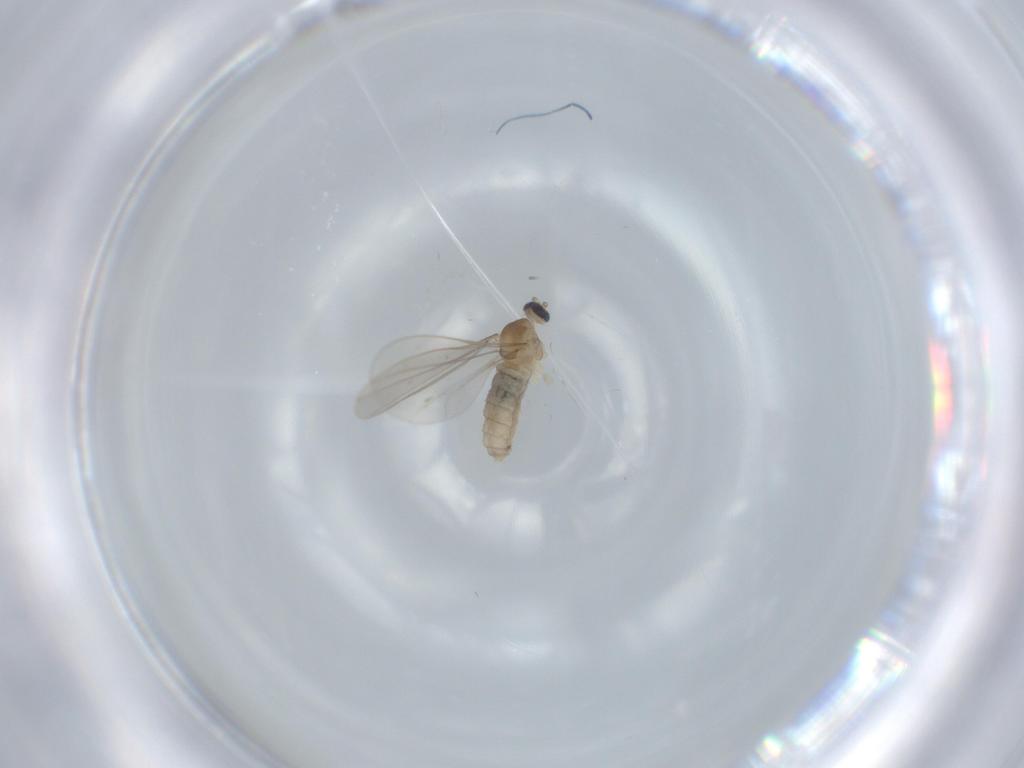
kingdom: Animalia
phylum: Arthropoda
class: Insecta
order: Diptera
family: Cecidomyiidae
